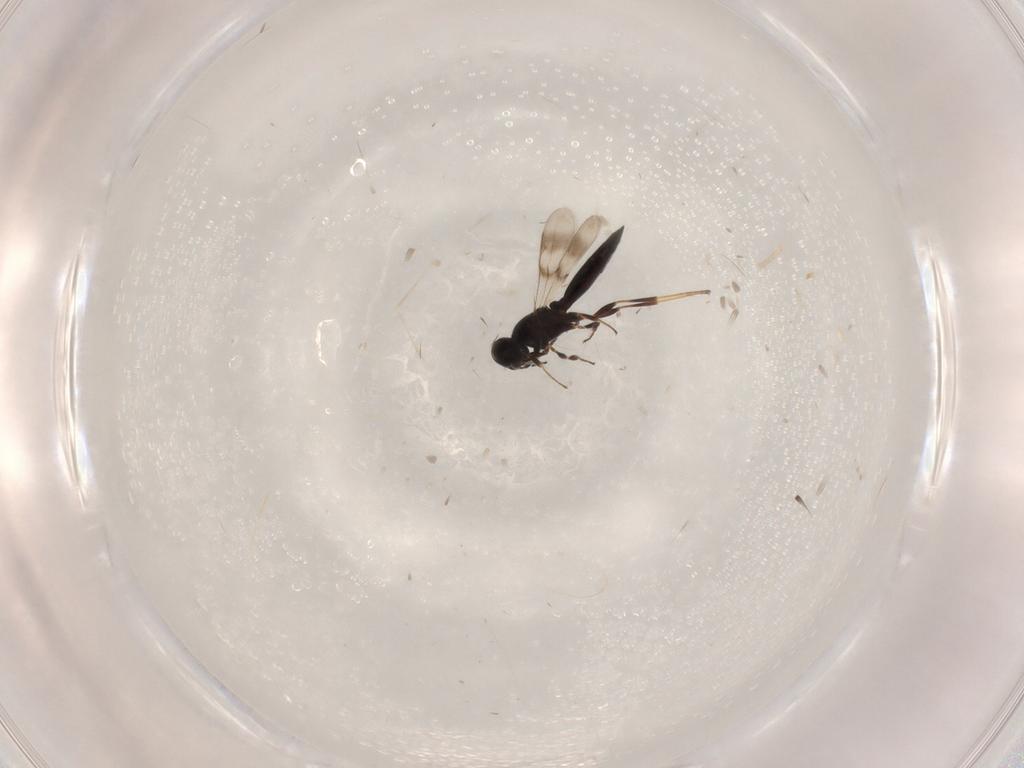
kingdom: Animalia
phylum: Arthropoda
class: Insecta
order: Hymenoptera
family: Scelionidae
